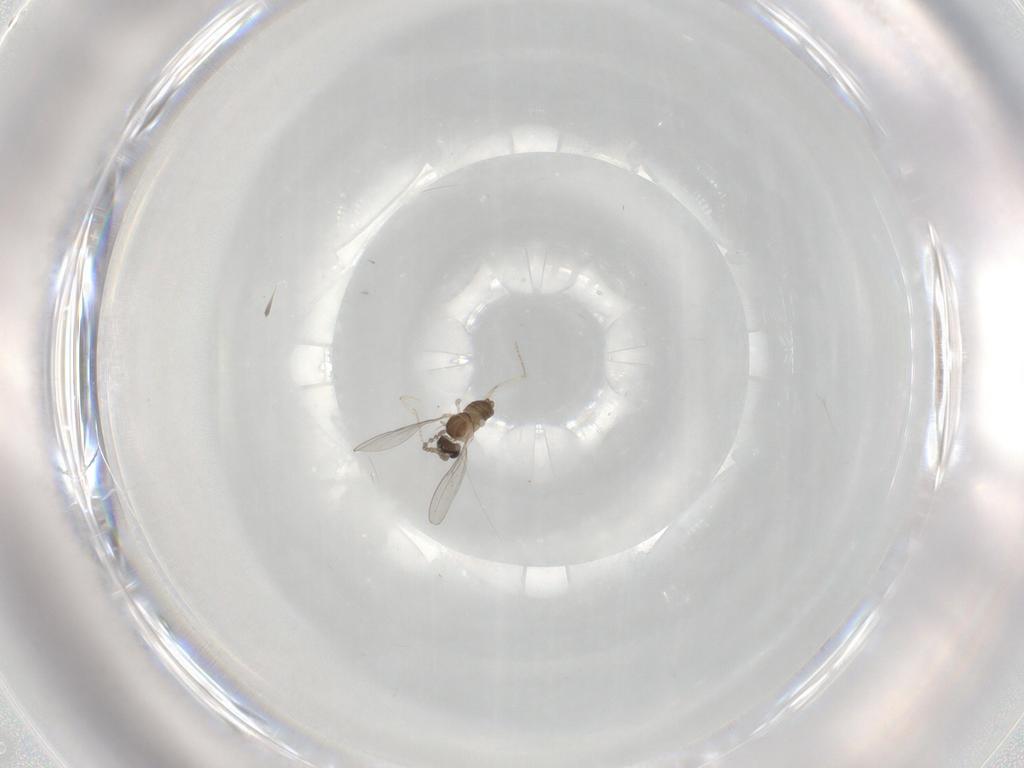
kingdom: Animalia
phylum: Arthropoda
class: Insecta
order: Diptera
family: Cecidomyiidae
